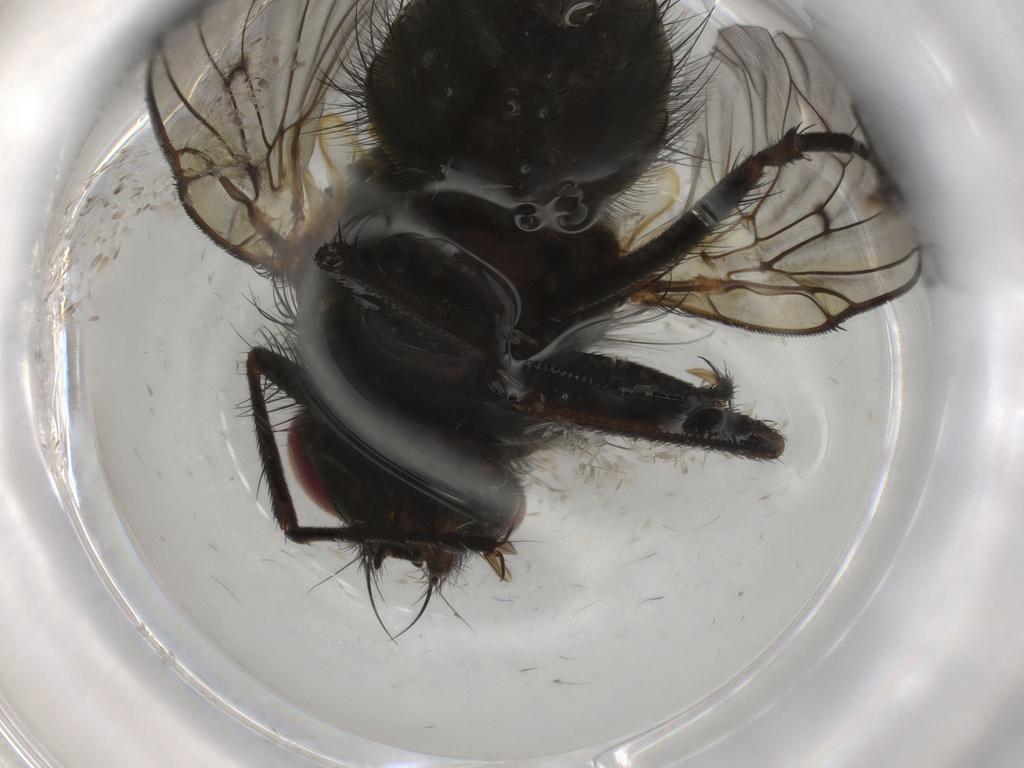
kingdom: Animalia
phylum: Arthropoda
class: Insecta
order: Diptera
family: Muscidae
